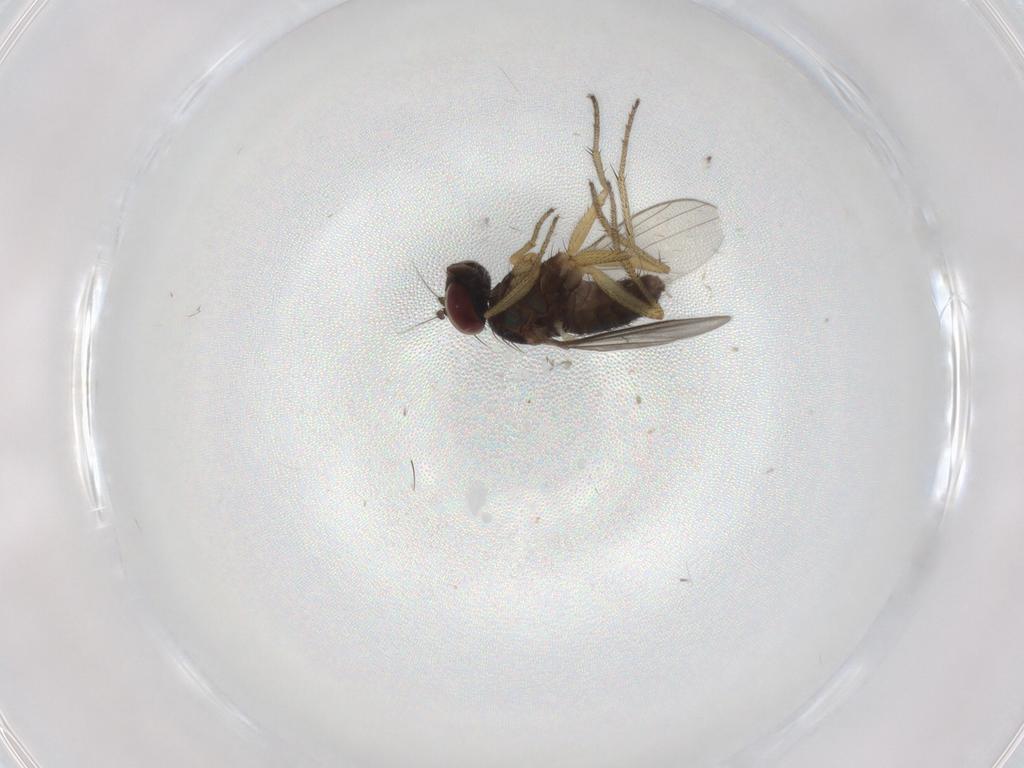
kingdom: Animalia
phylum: Arthropoda
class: Insecta
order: Diptera
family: Dolichopodidae
